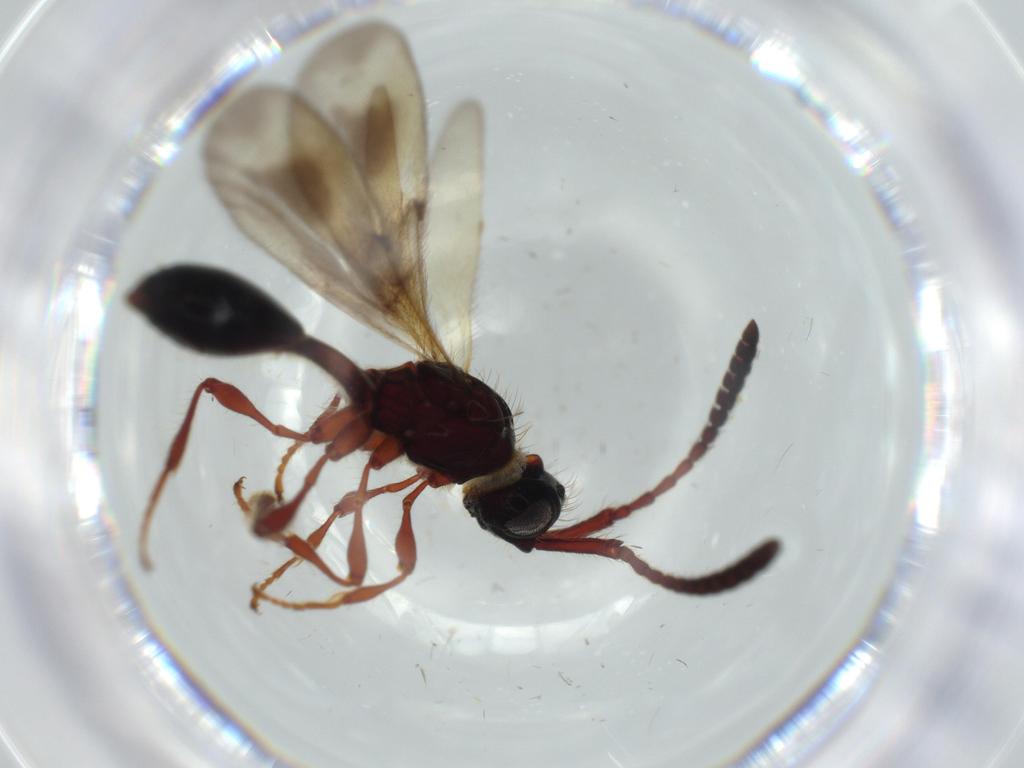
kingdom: Animalia
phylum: Arthropoda
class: Insecta
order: Hymenoptera
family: Diapriidae
